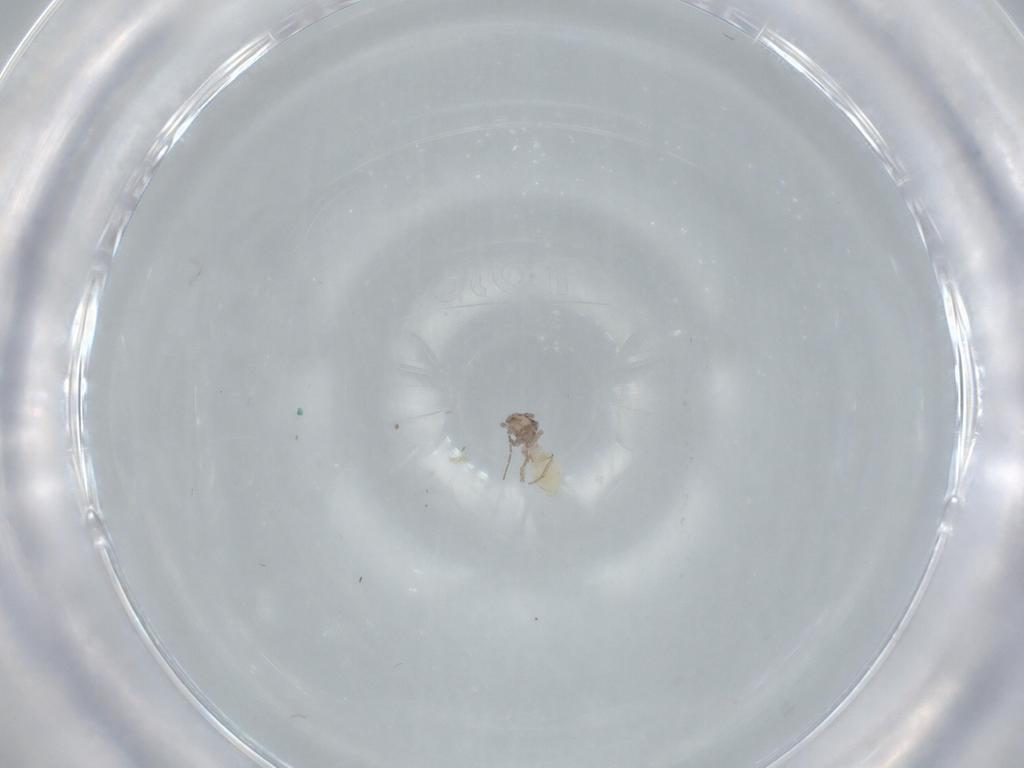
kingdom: Animalia
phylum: Arthropoda
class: Insecta
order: Psocodea
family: Lepidopsocidae
